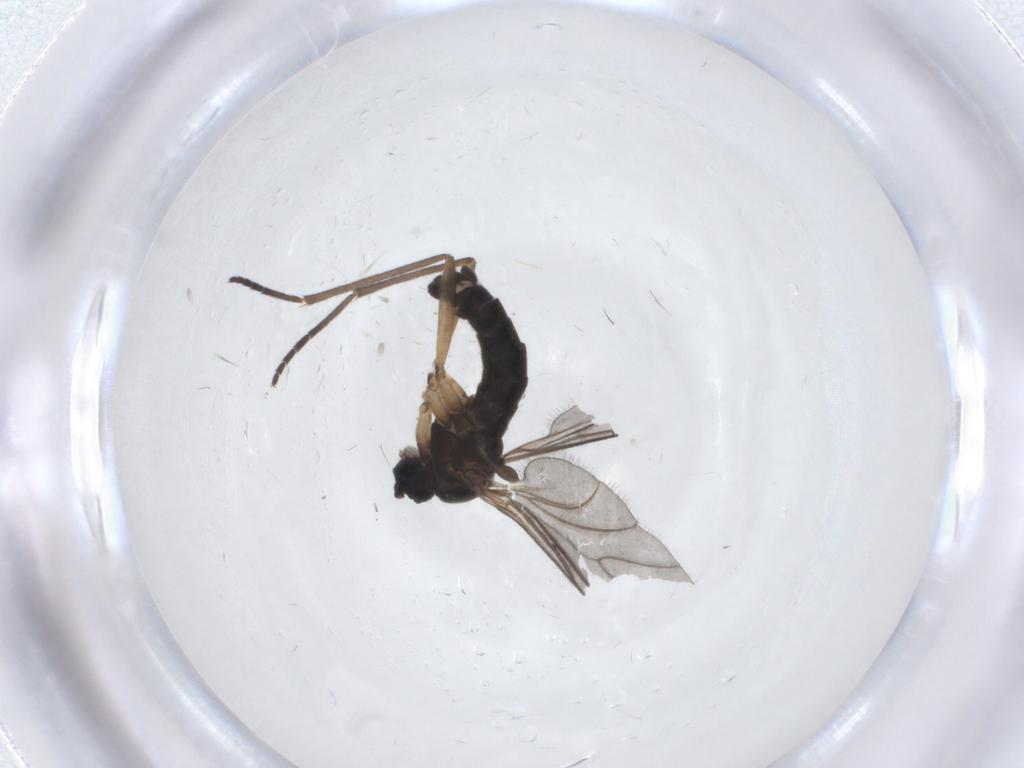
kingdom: Animalia
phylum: Arthropoda
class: Insecta
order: Diptera
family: Sciaridae
